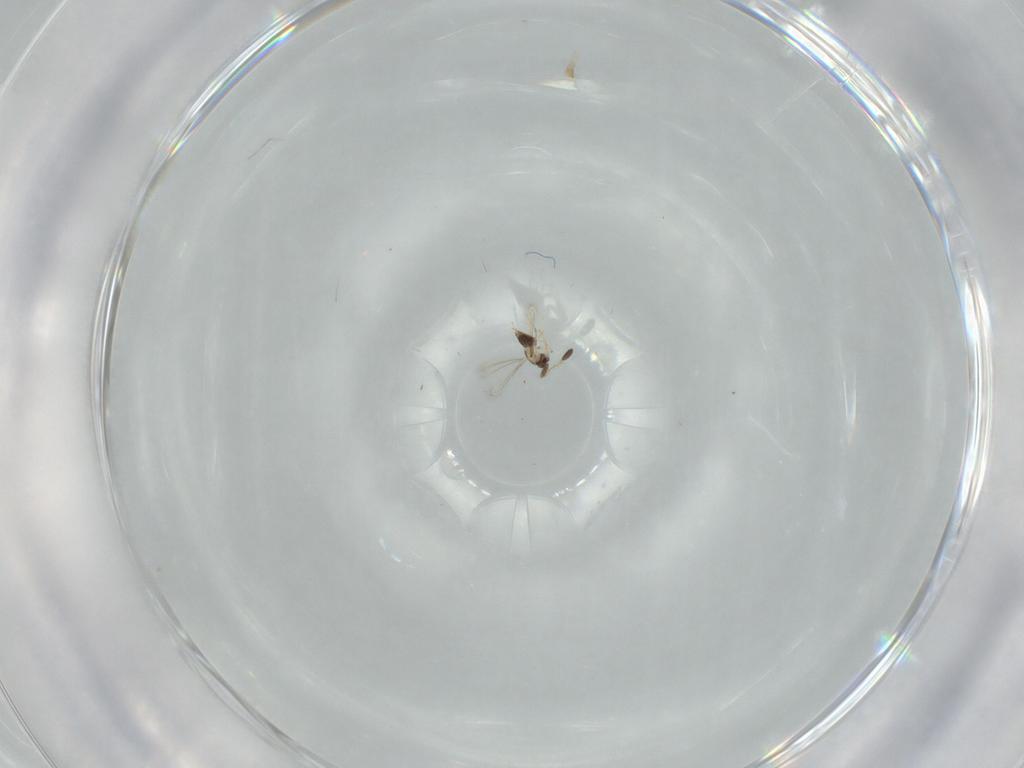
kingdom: Animalia
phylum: Arthropoda
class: Insecta
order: Hymenoptera
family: Mymaridae
